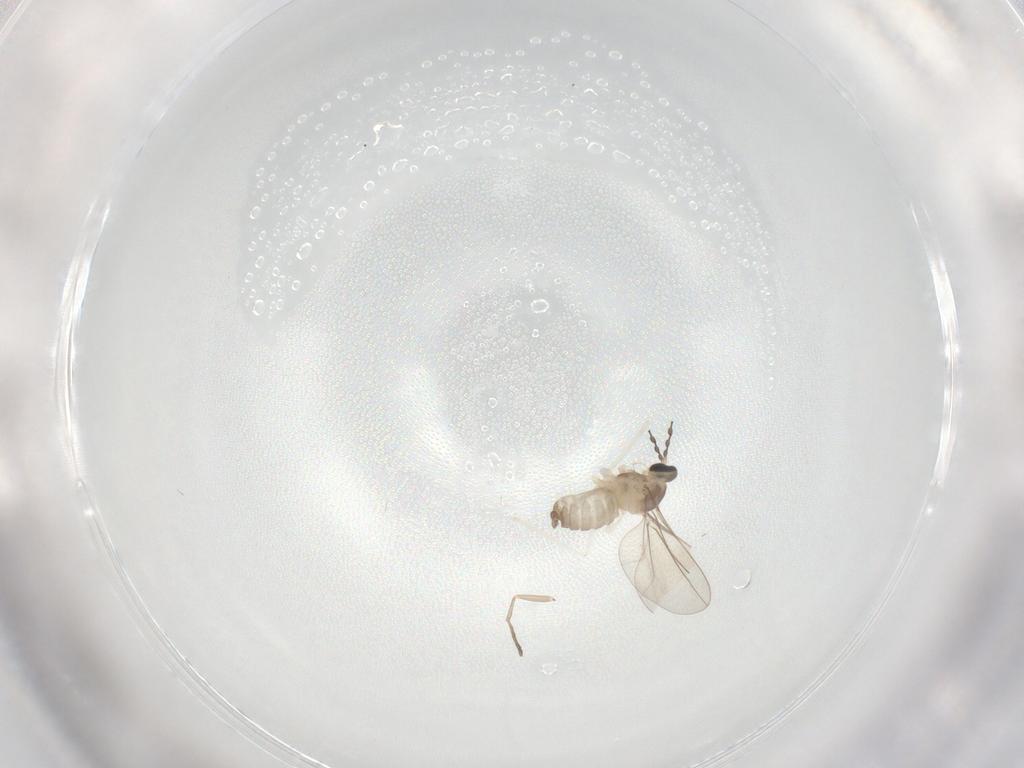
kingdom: Animalia
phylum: Arthropoda
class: Insecta
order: Diptera
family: Cecidomyiidae
